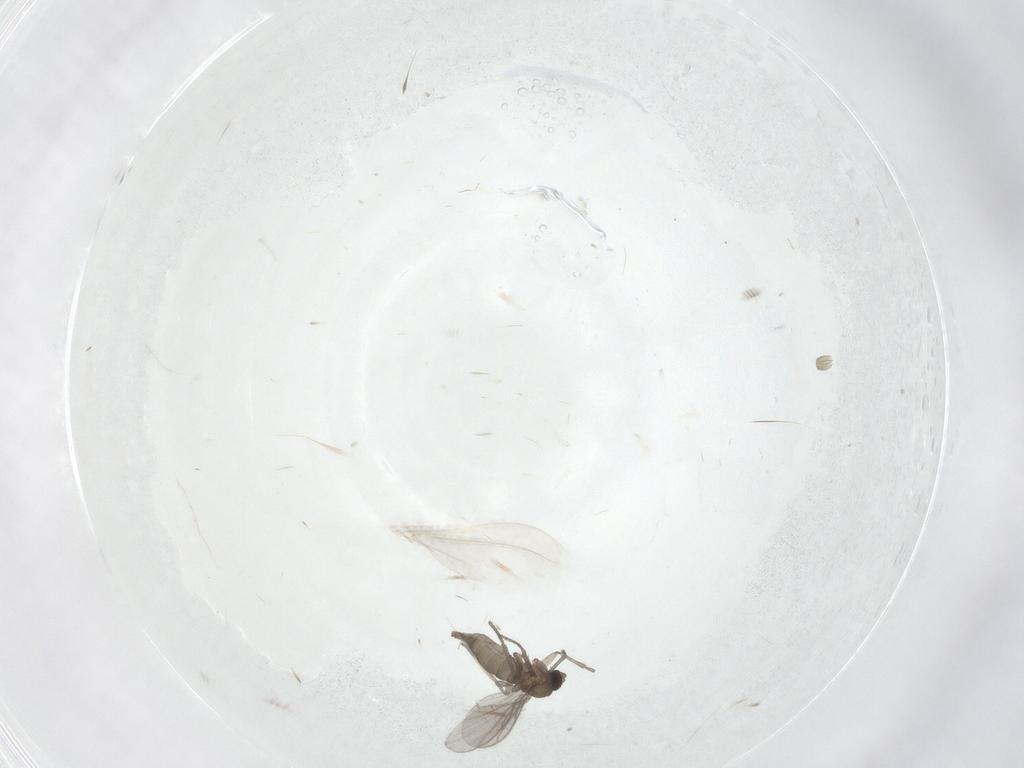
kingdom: Animalia
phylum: Arthropoda
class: Insecta
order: Diptera
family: Sciaridae
